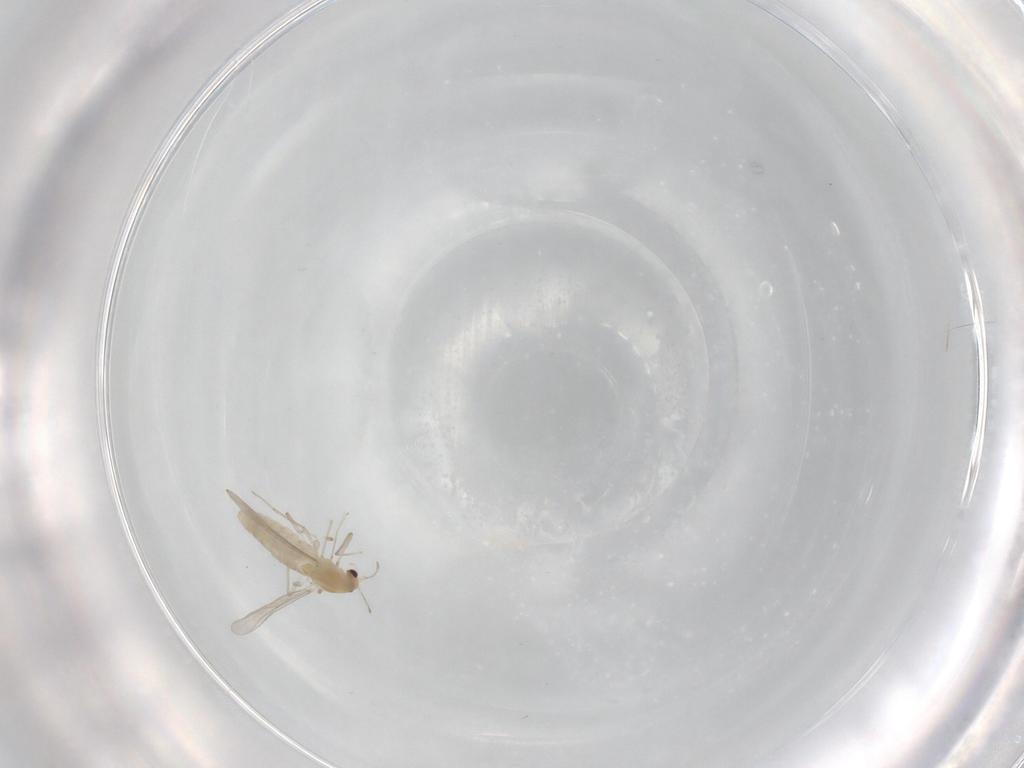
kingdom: Animalia
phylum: Arthropoda
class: Insecta
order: Diptera
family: Chironomidae
